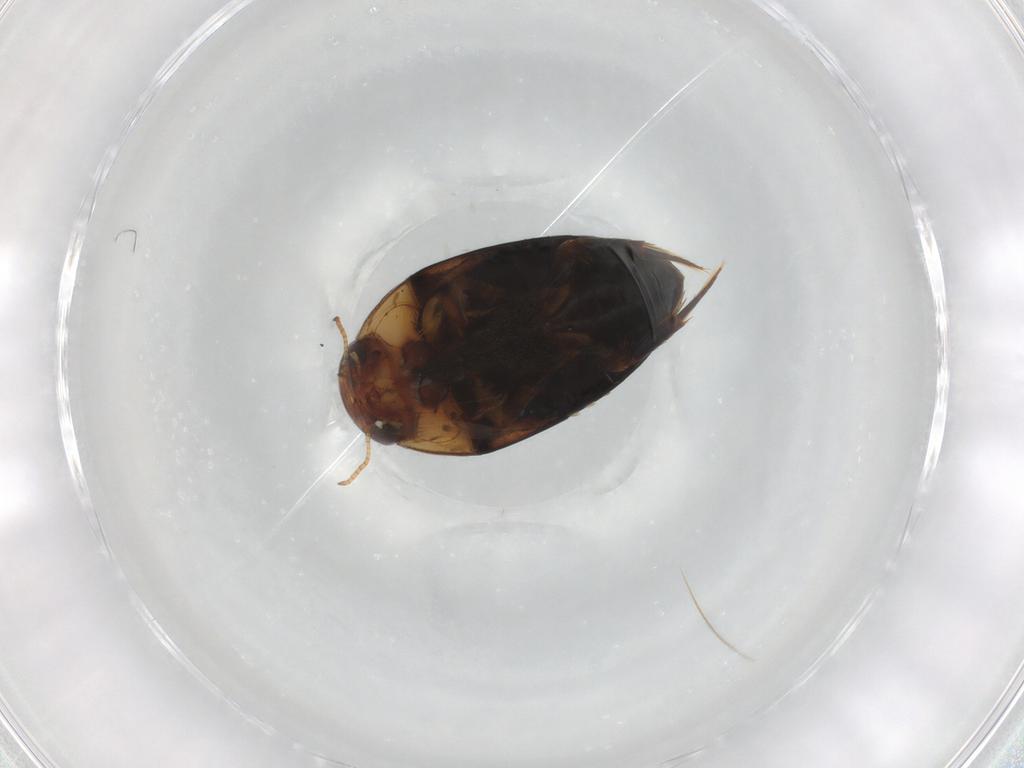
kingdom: Animalia
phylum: Arthropoda
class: Insecta
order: Coleoptera
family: Noteridae
